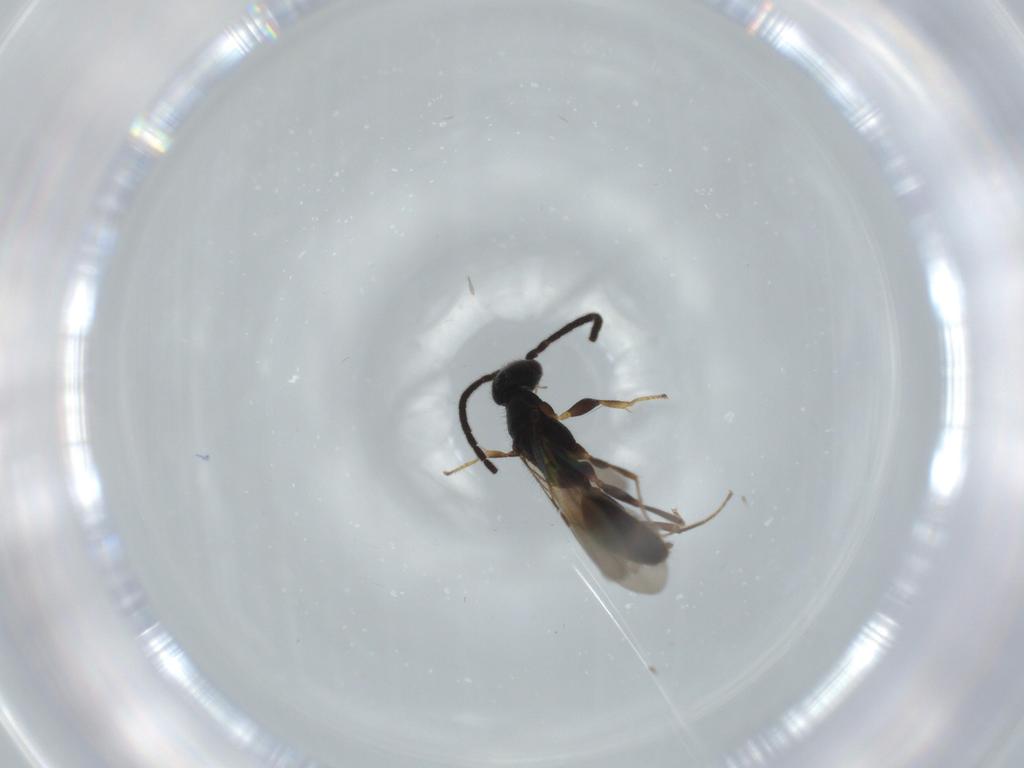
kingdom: Animalia
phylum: Arthropoda
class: Insecta
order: Hymenoptera
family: Bethylidae
